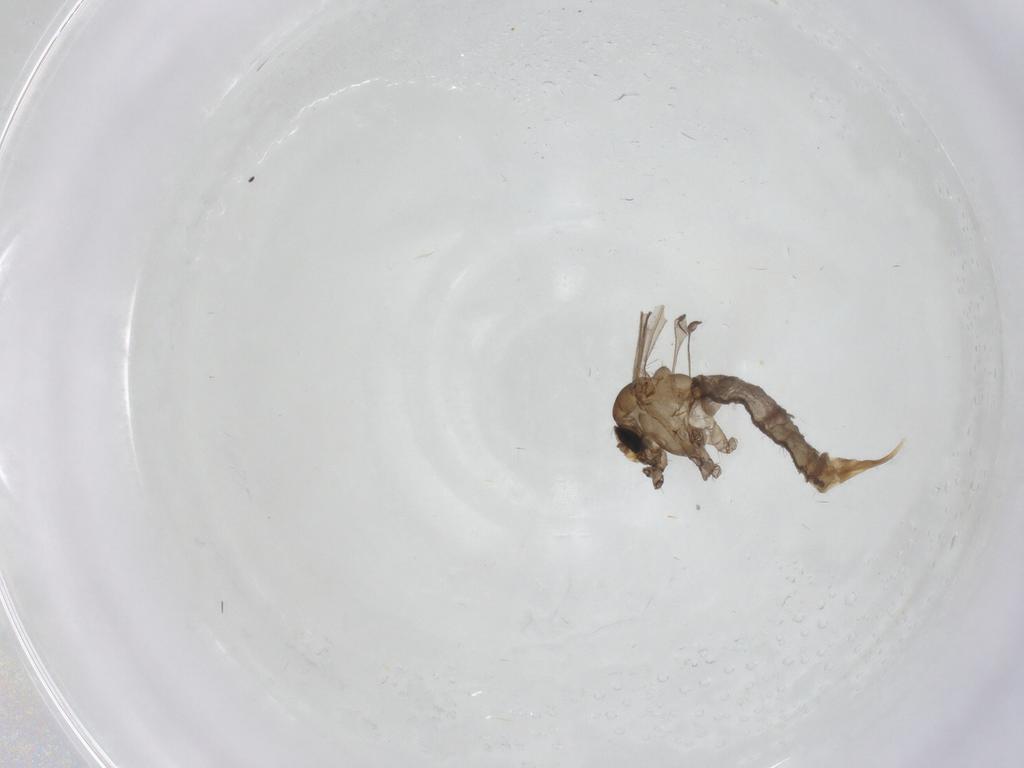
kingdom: Animalia
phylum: Arthropoda
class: Insecta
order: Diptera
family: Limoniidae
